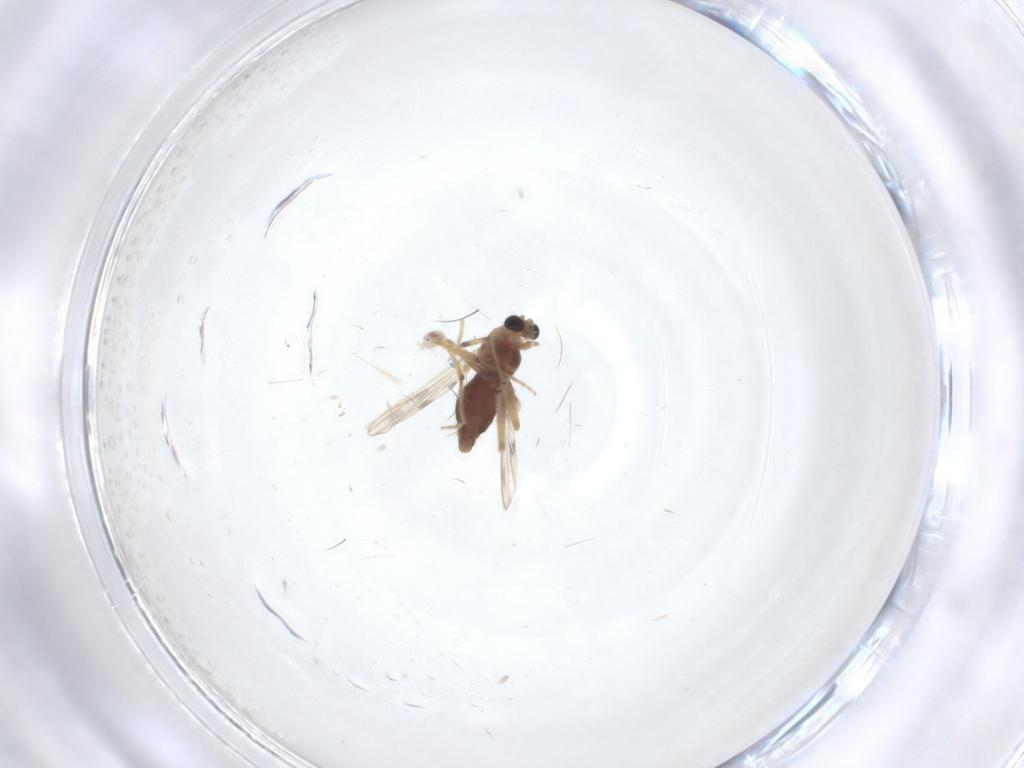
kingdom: Animalia
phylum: Arthropoda
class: Insecta
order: Diptera
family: Chironomidae
